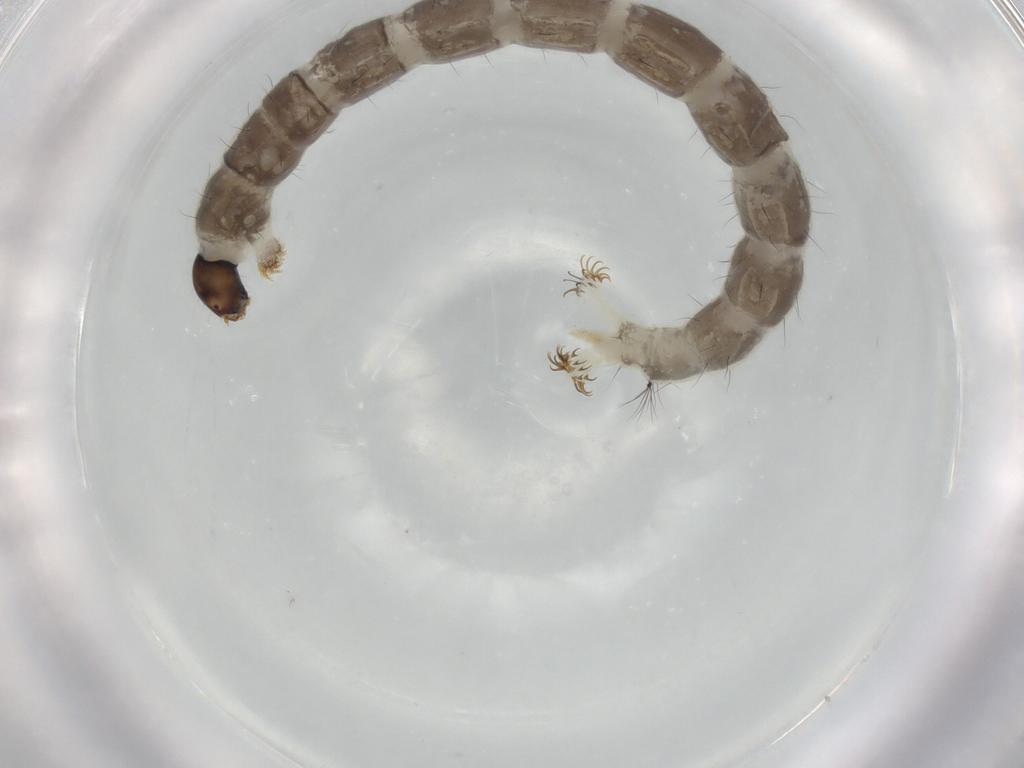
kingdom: Animalia
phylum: Arthropoda
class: Insecta
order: Diptera
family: Chironomidae
